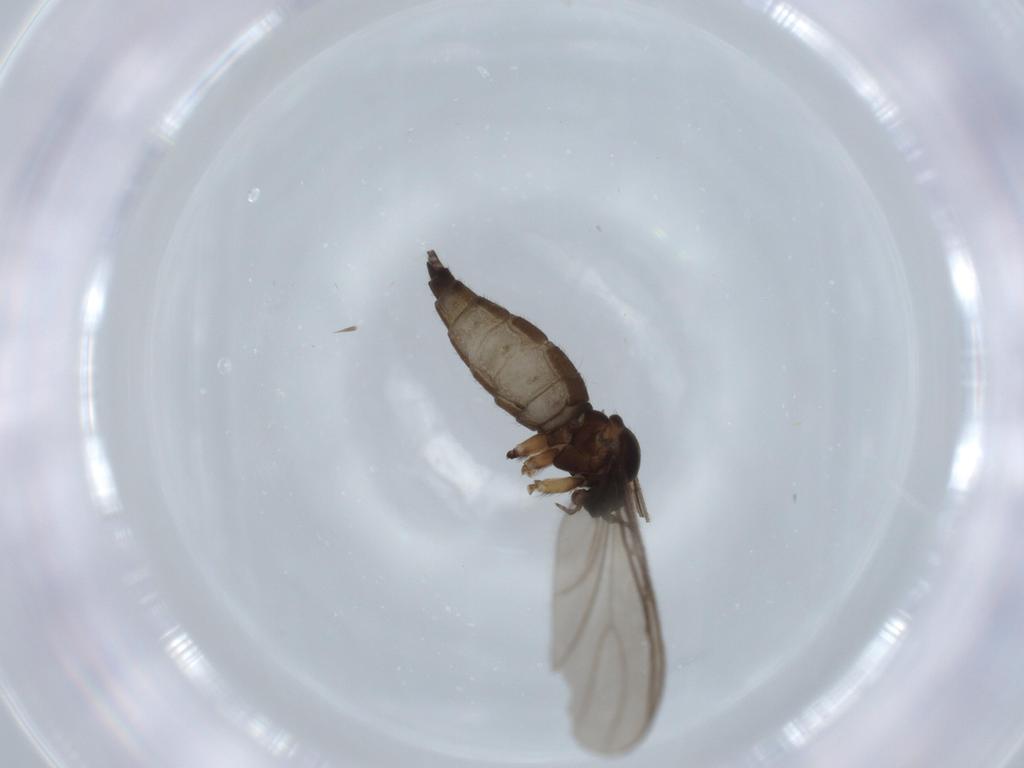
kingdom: Animalia
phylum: Arthropoda
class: Insecta
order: Diptera
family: Sciaridae
